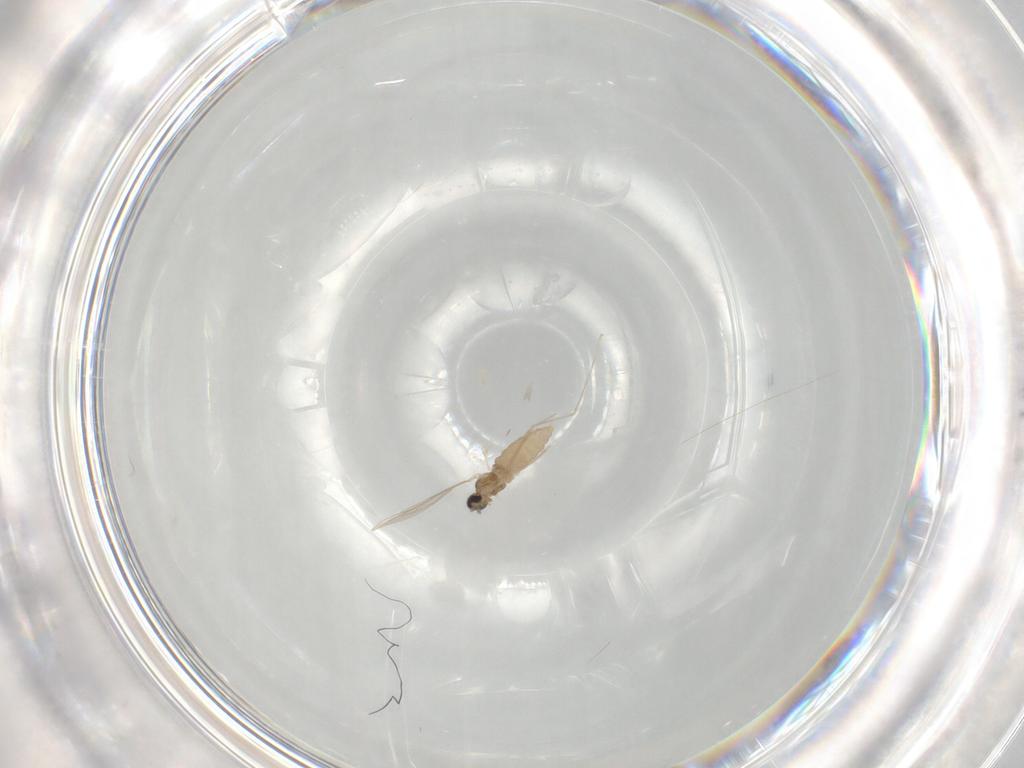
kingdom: Animalia
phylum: Arthropoda
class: Insecta
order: Diptera
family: Cecidomyiidae
